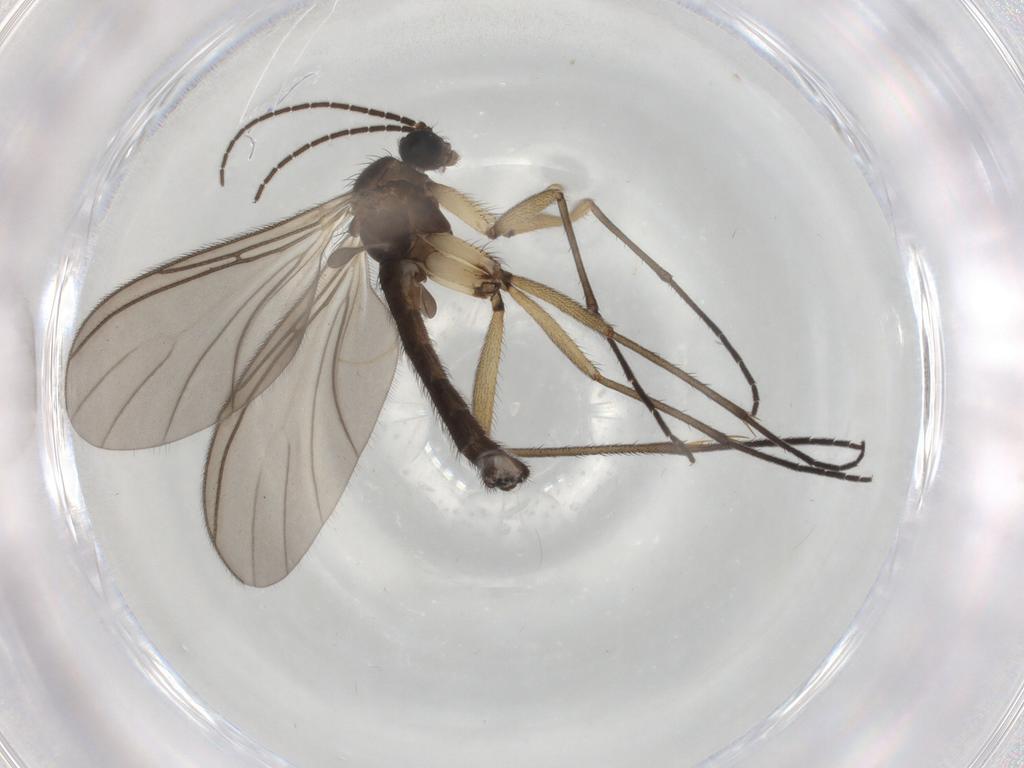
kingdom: Animalia
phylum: Arthropoda
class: Insecta
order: Diptera
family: Sciaridae
